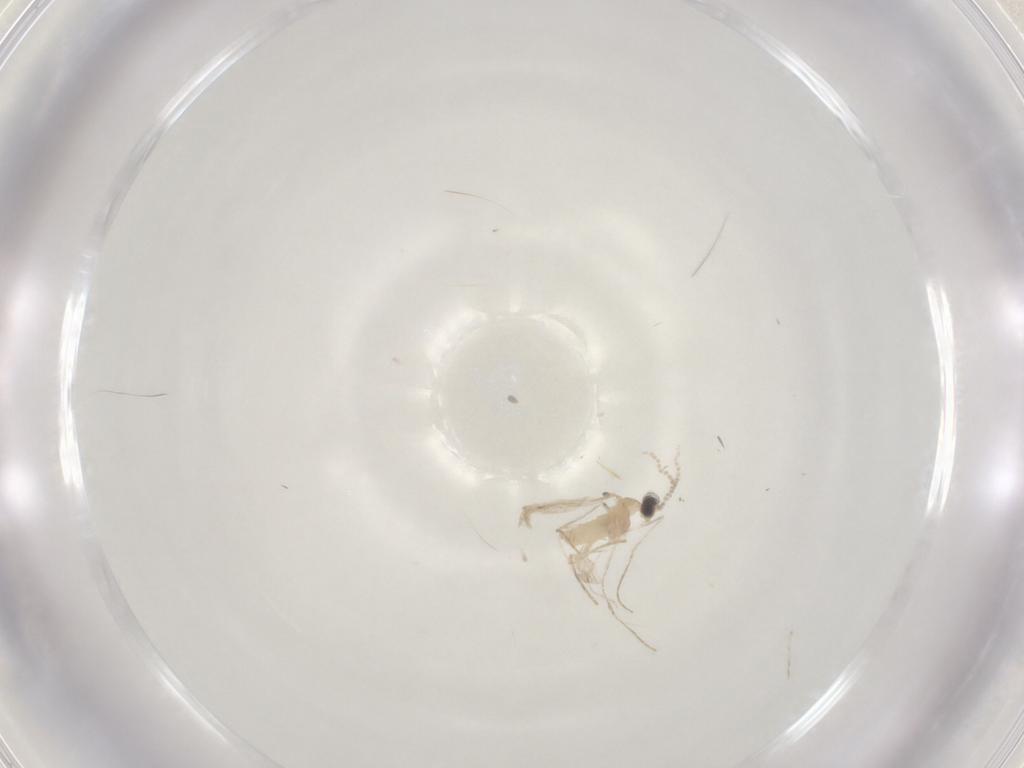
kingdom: Animalia
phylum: Arthropoda
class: Insecta
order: Diptera
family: Cecidomyiidae
